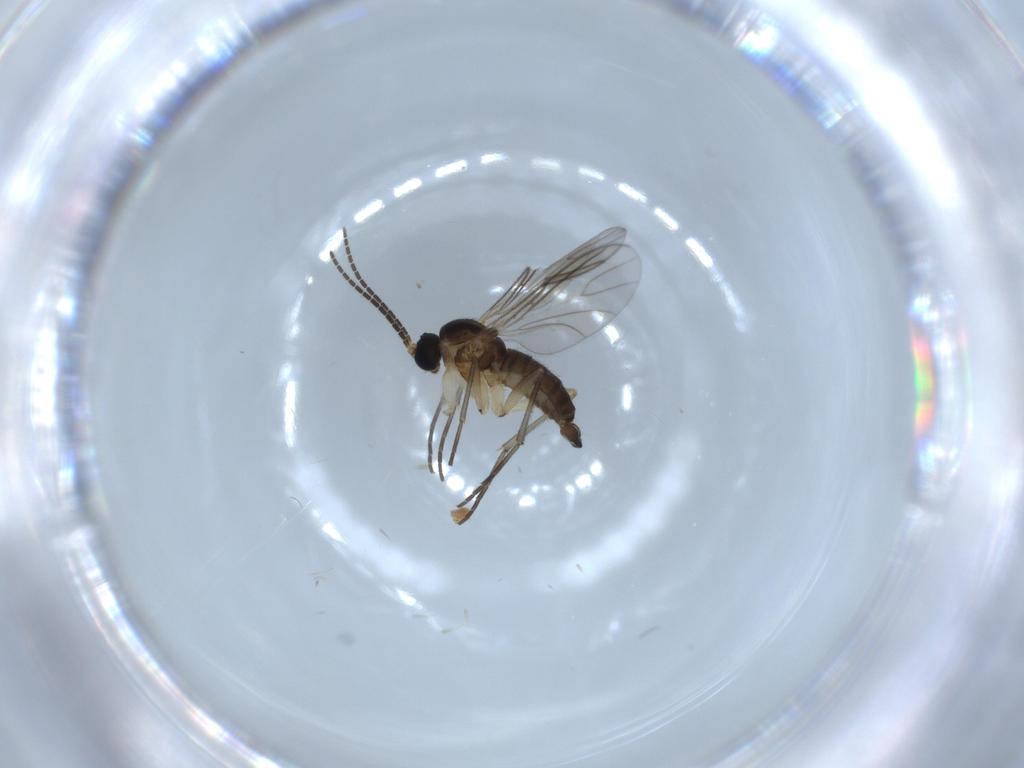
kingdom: Animalia
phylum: Arthropoda
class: Insecta
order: Diptera
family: Sciaridae
